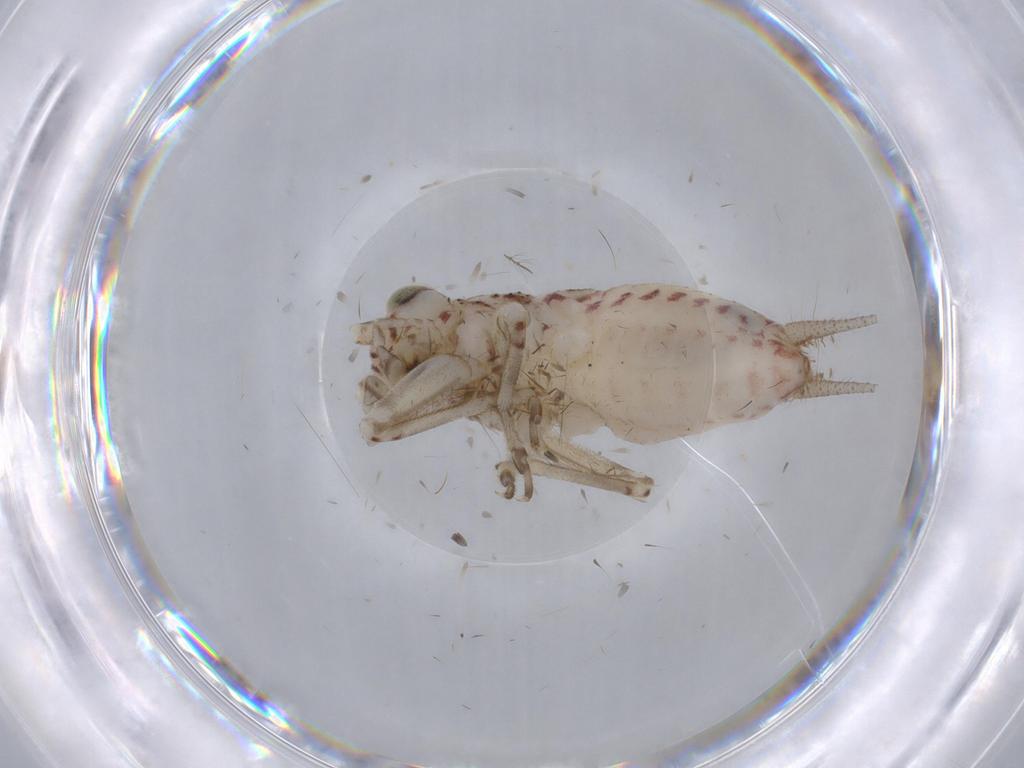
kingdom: Animalia
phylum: Arthropoda
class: Insecta
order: Orthoptera
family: Trigonidiidae
